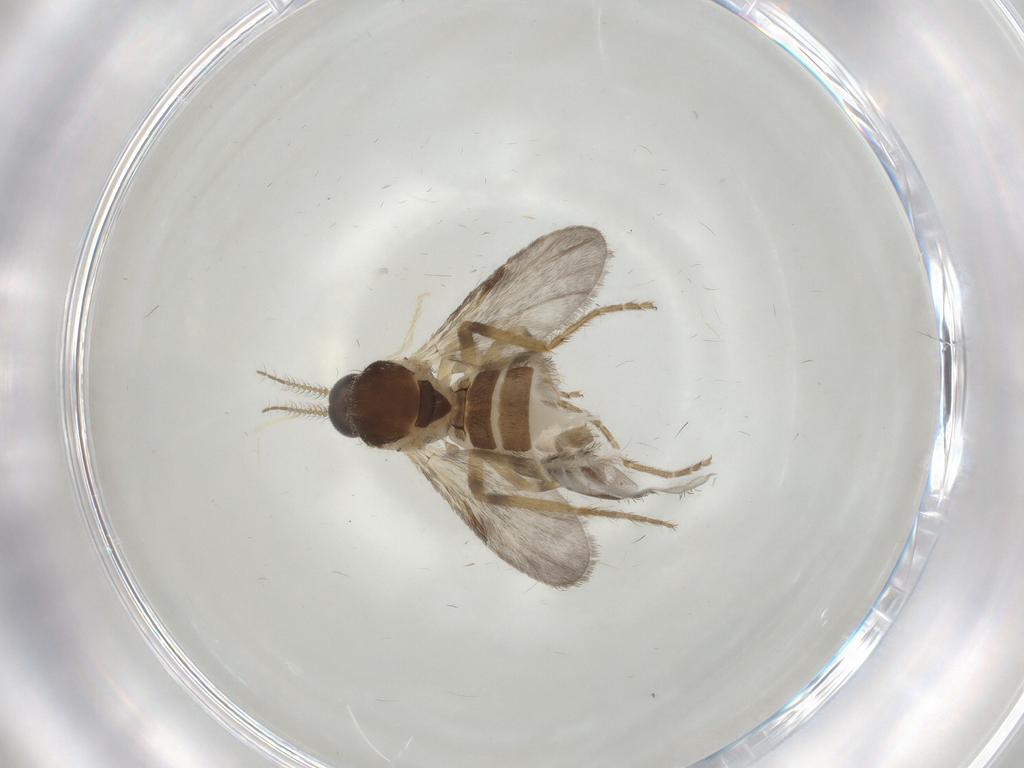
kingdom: Animalia
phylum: Arthropoda
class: Insecta
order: Diptera
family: Ceratopogonidae
